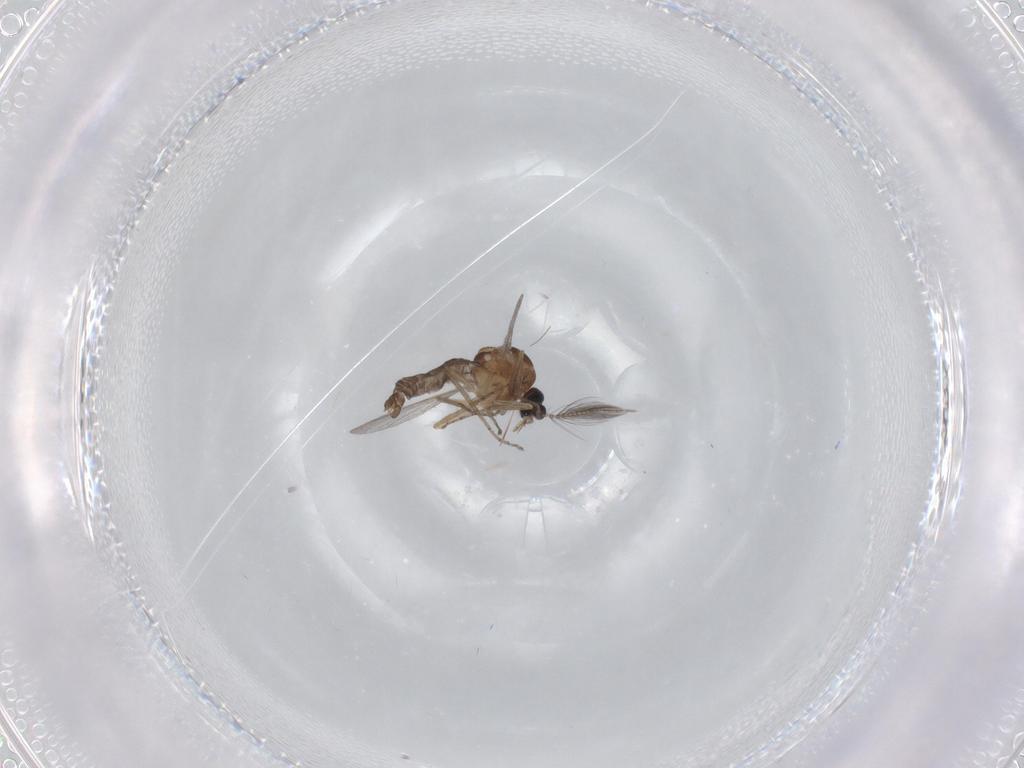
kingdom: Animalia
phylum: Arthropoda
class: Insecta
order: Diptera
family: Ceratopogonidae
